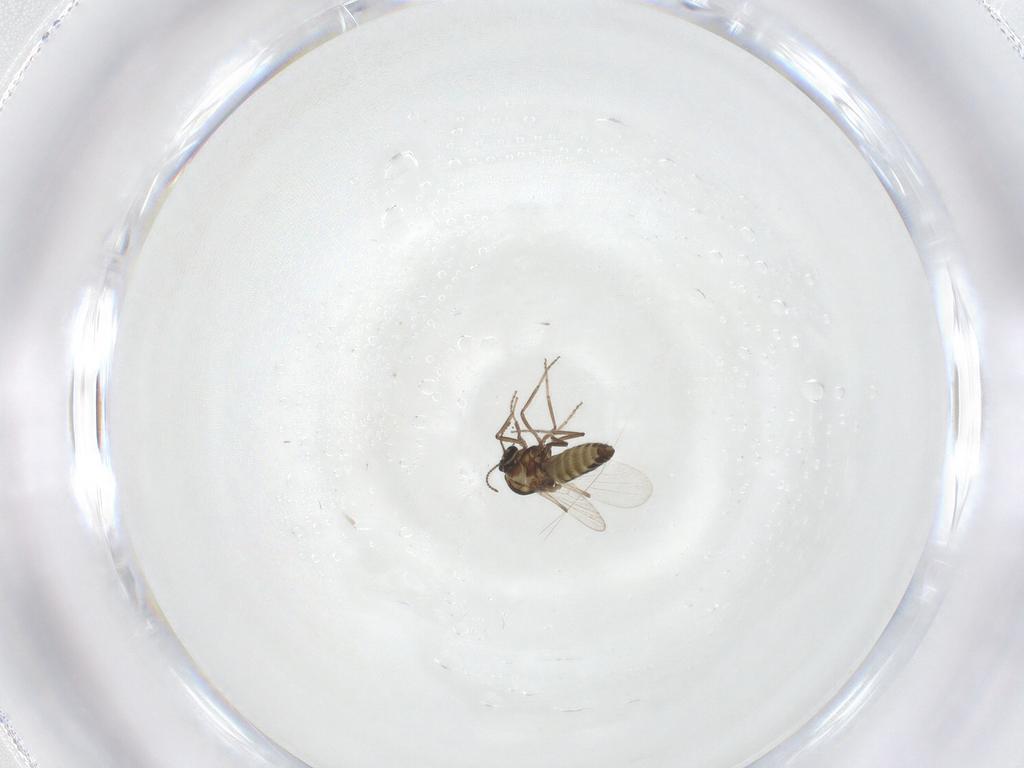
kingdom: Animalia
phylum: Arthropoda
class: Insecta
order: Diptera
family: Ceratopogonidae
